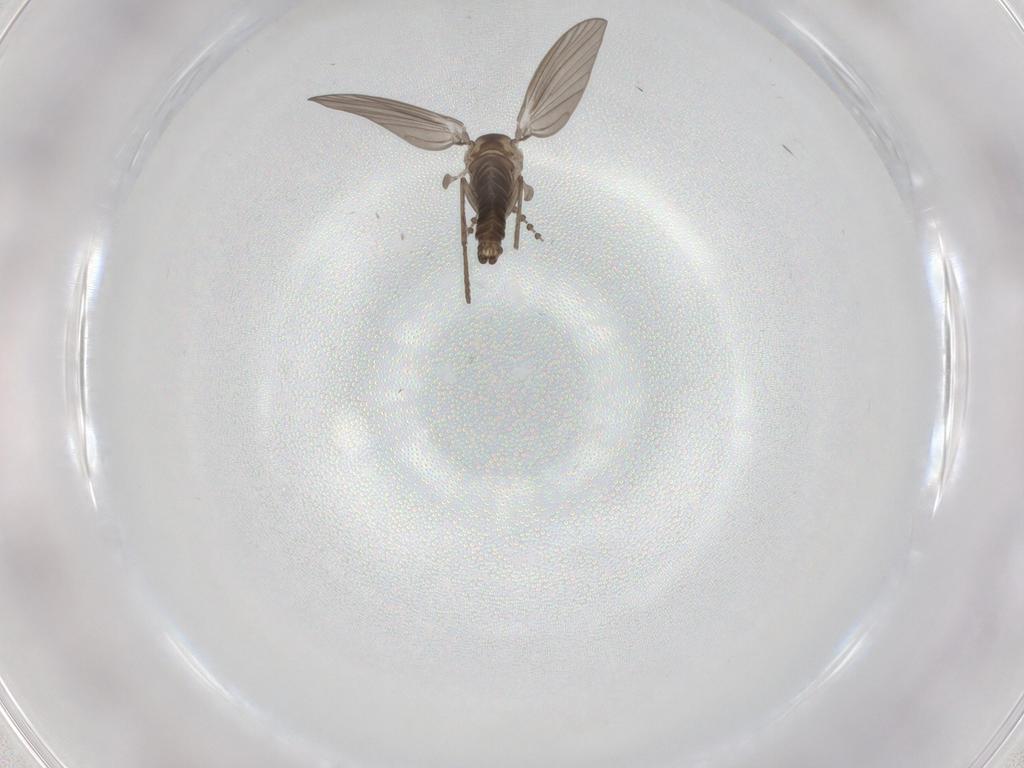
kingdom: Animalia
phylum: Arthropoda
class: Insecta
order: Diptera
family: Psychodidae
